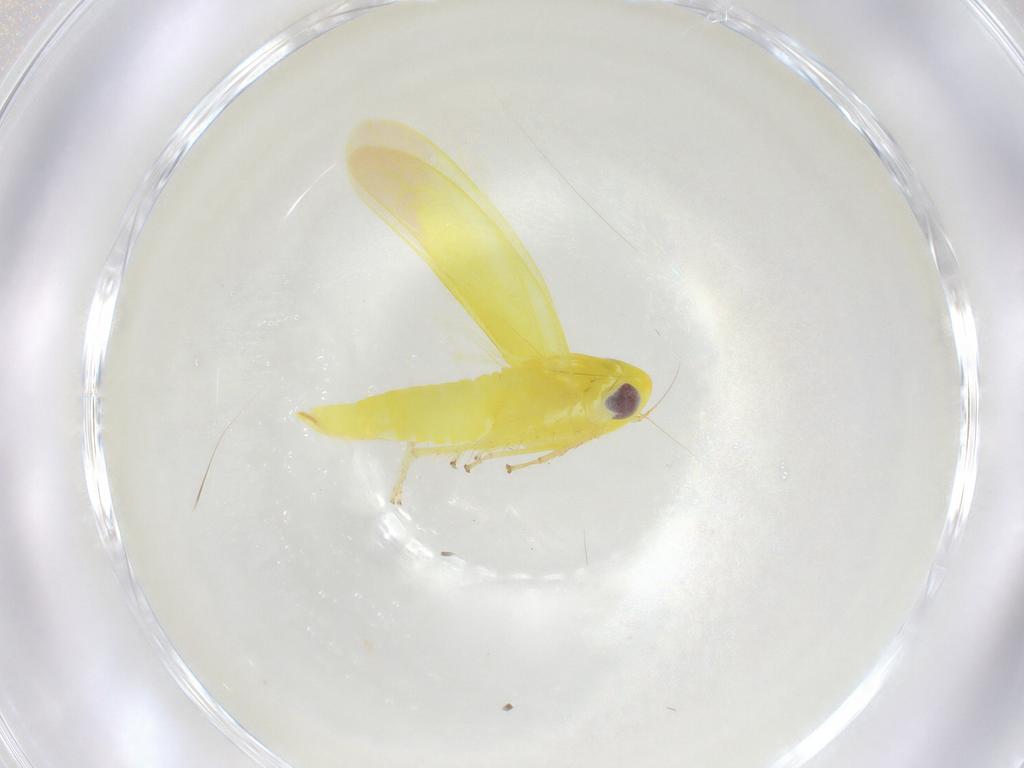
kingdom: Animalia
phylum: Arthropoda
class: Insecta
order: Hemiptera
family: Cicadellidae
